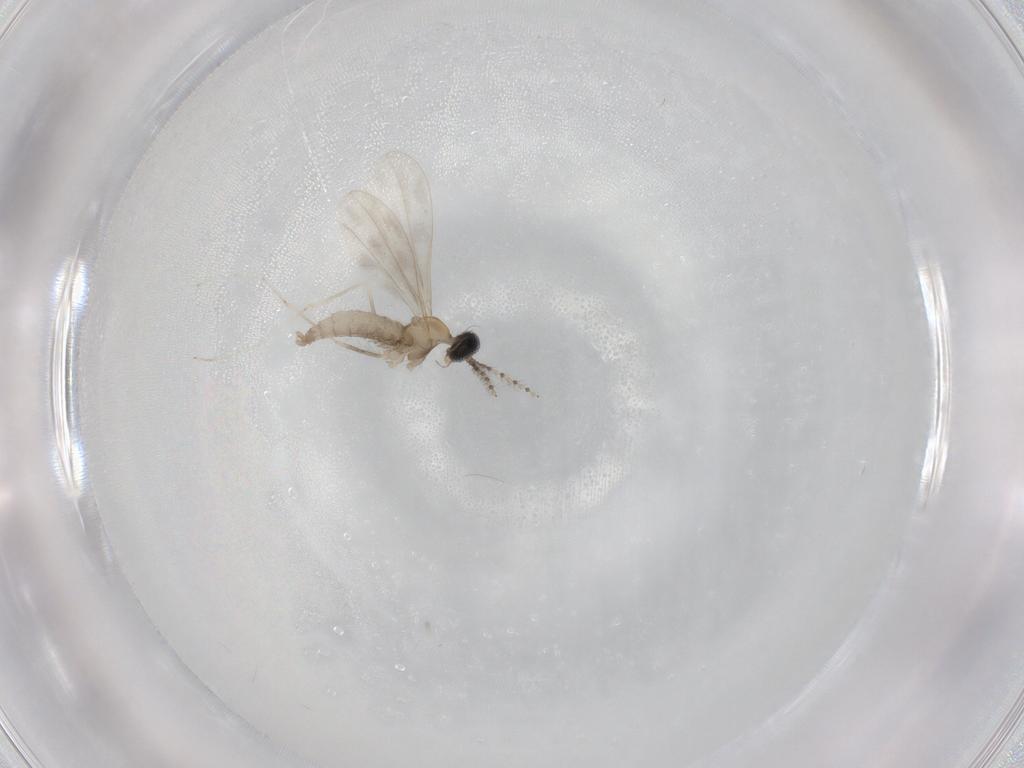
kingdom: Animalia
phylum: Arthropoda
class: Insecta
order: Diptera
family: Cecidomyiidae
